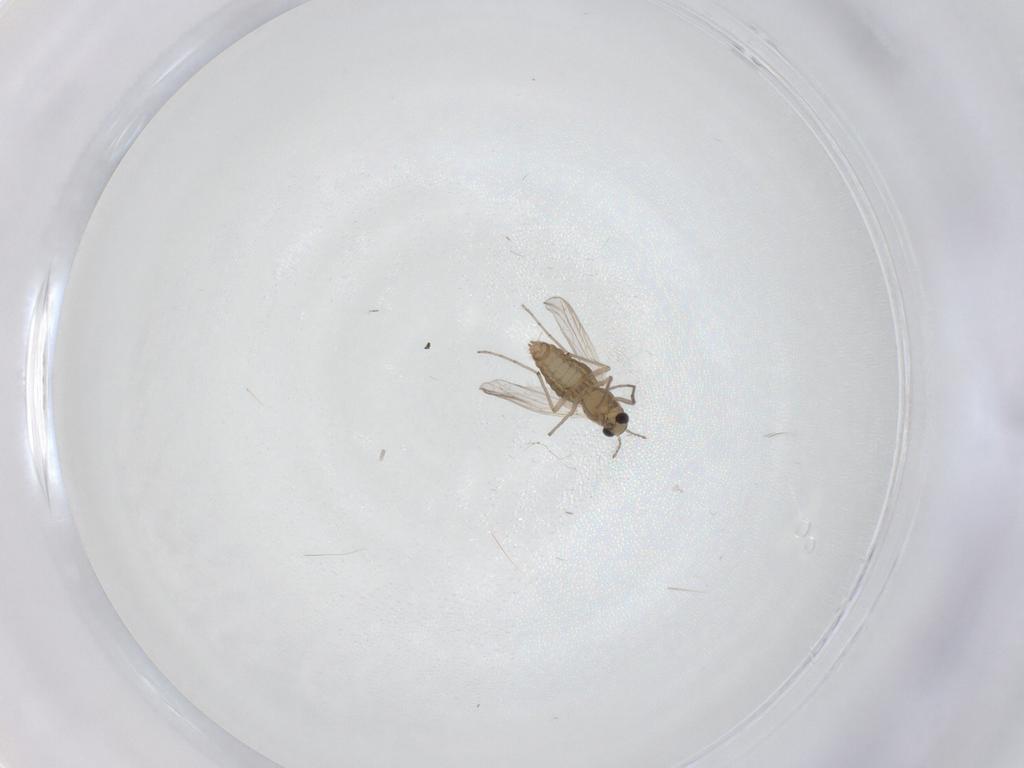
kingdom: Animalia
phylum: Arthropoda
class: Insecta
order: Diptera
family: Chironomidae
